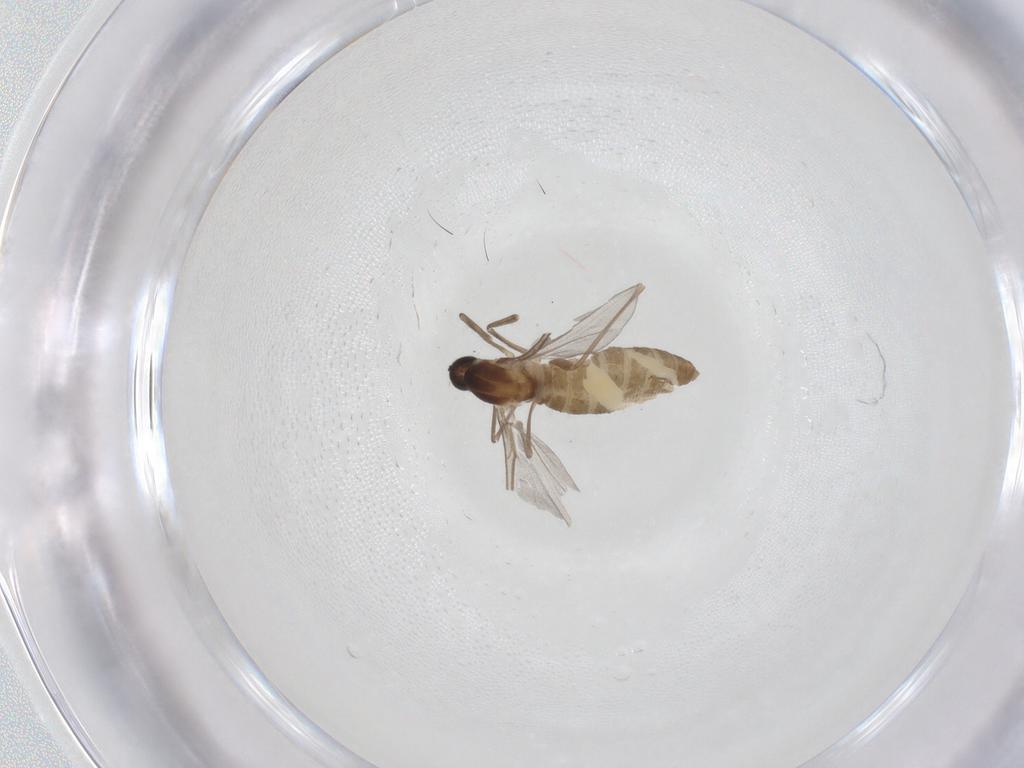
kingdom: Animalia
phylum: Arthropoda
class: Insecta
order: Diptera
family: Cecidomyiidae
